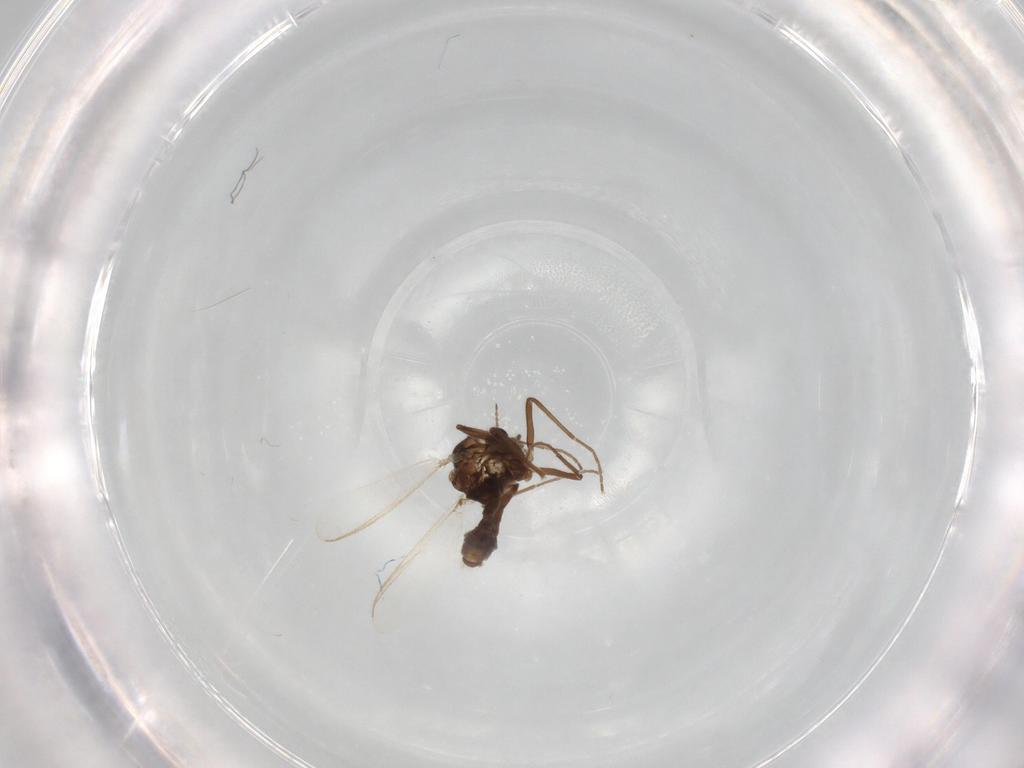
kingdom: Animalia
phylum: Arthropoda
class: Insecta
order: Diptera
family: Chironomidae
